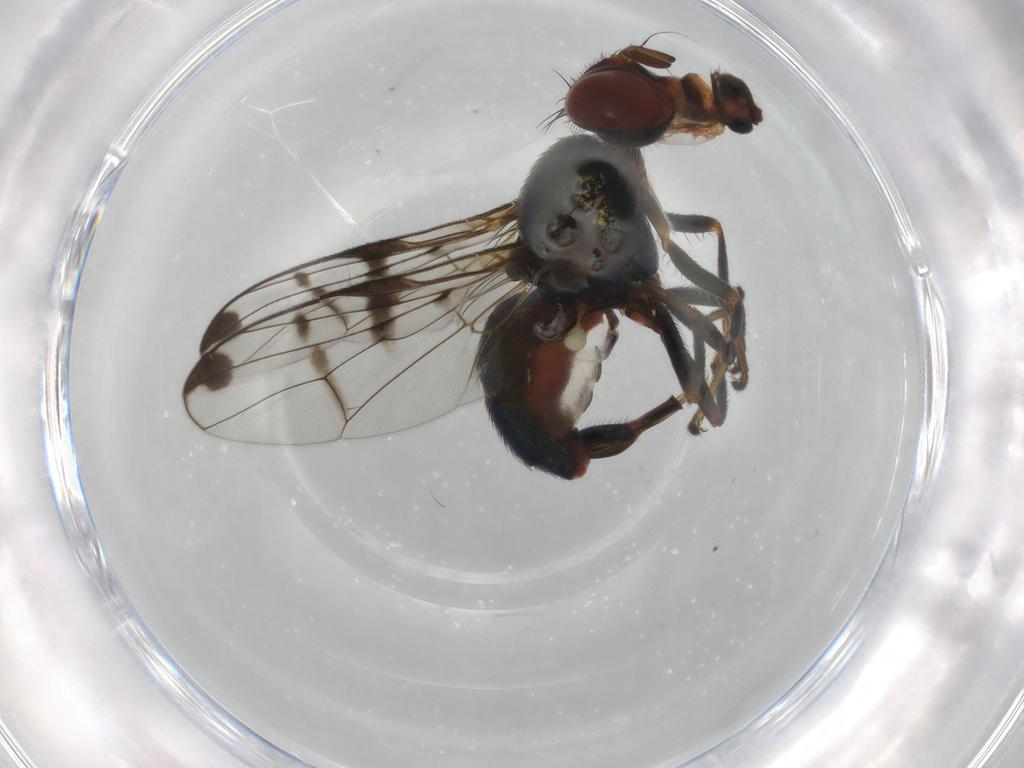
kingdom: Animalia
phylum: Arthropoda
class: Insecta
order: Diptera
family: Platystomatidae
